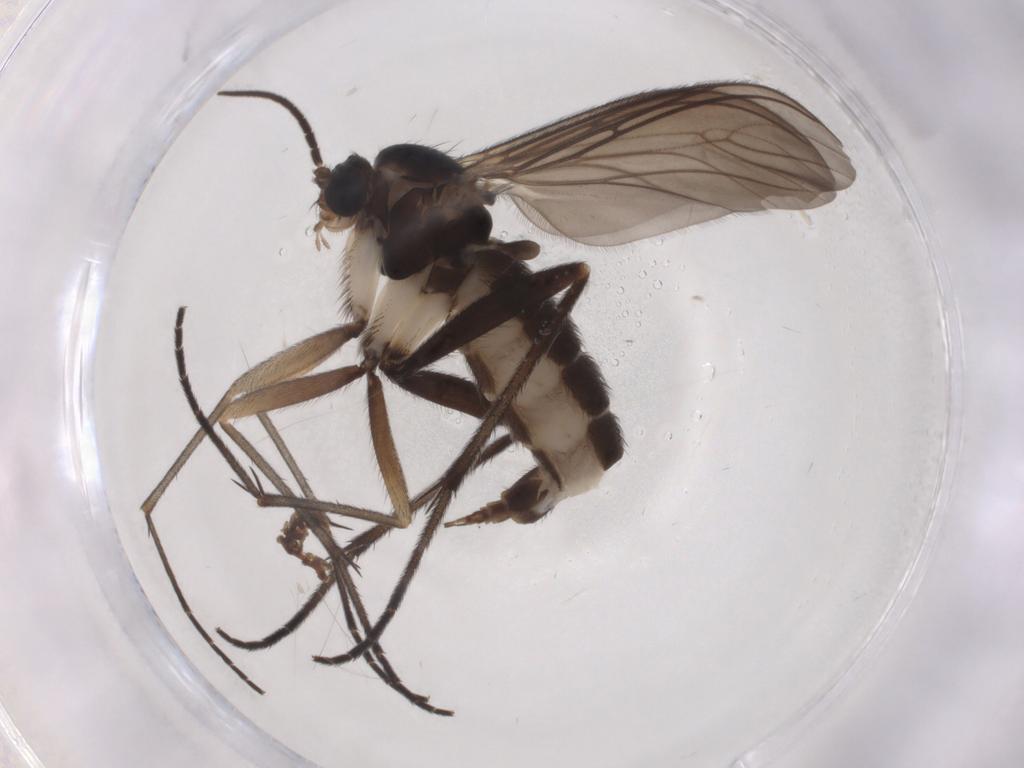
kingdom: Animalia
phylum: Arthropoda
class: Insecta
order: Diptera
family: Sciaridae
